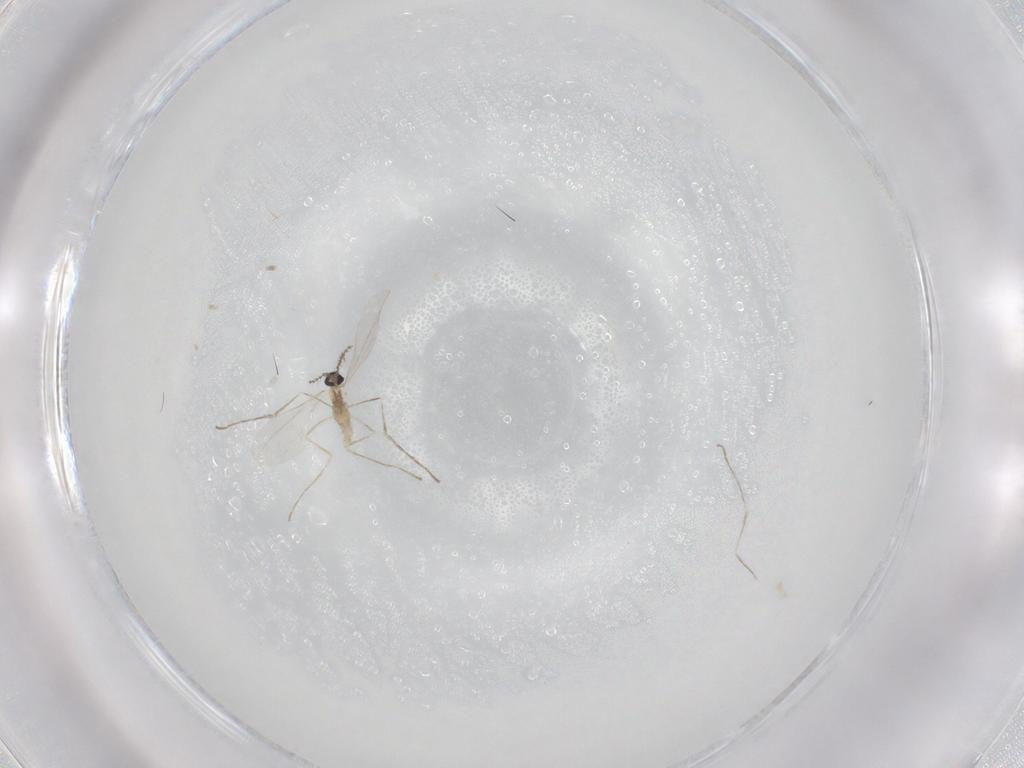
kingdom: Animalia
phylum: Arthropoda
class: Insecta
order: Diptera
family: Cecidomyiidae
